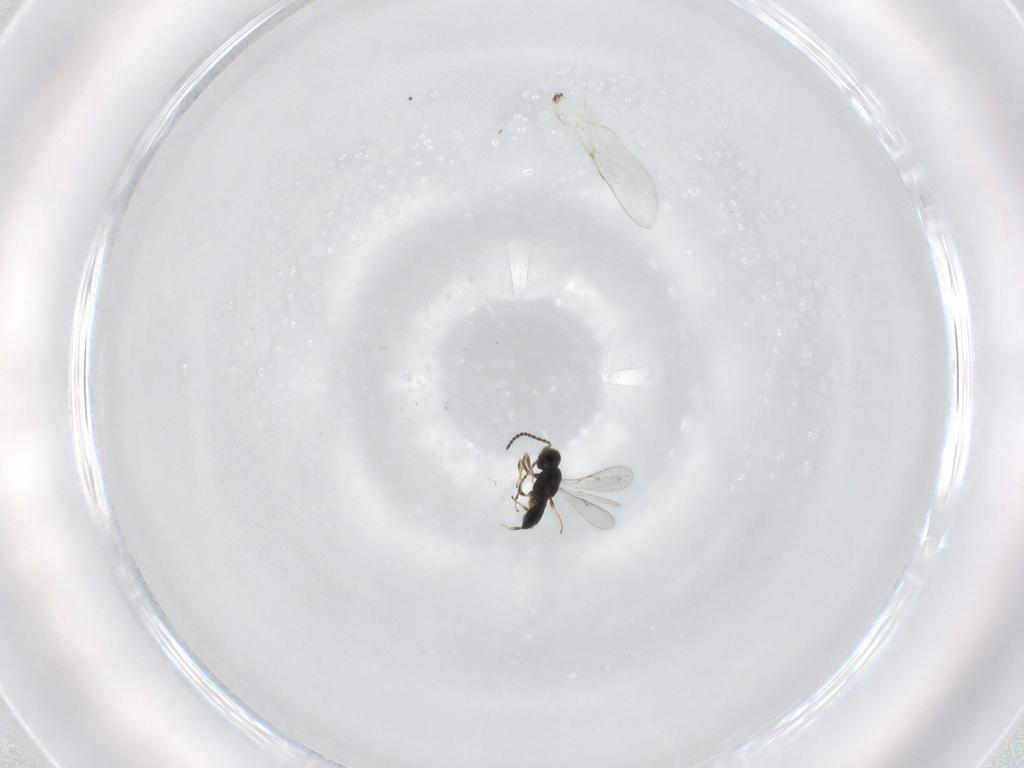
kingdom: Animalia
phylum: Arthropoda
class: Insecta
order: Hymenoptera
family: Scelionidae
